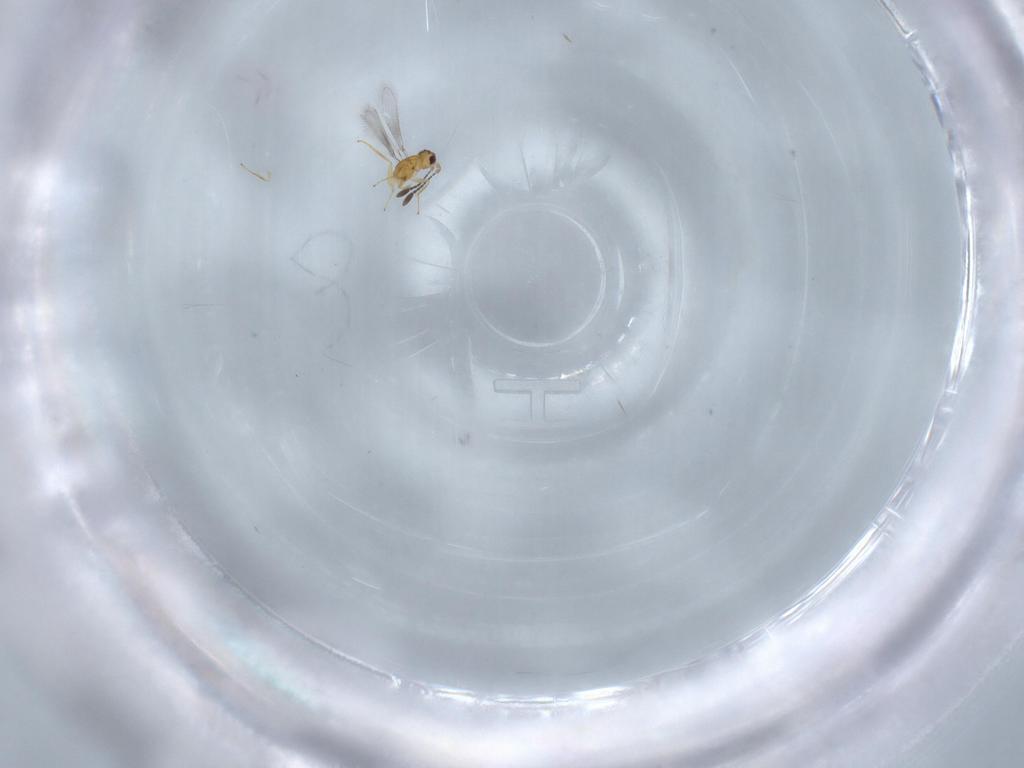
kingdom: Animalia
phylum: Arthropoda
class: Insecta
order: Hymenoptera
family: Mymaridae
